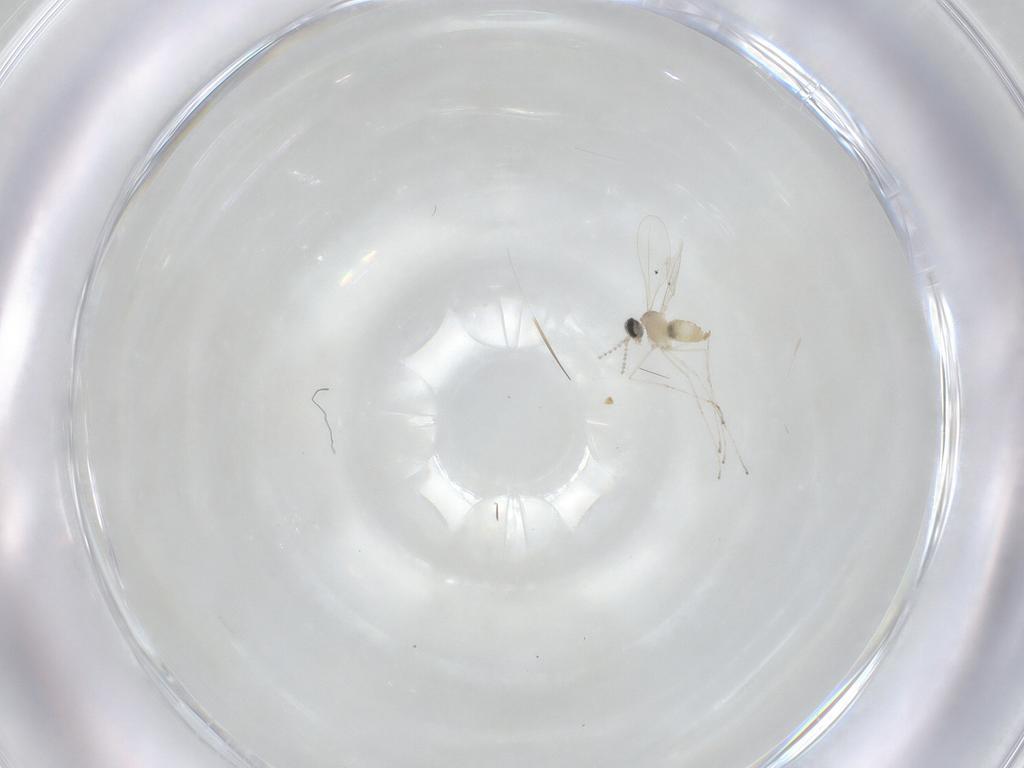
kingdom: Animalia
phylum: Arthropoda
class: Insecta
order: Diptera
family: Cecidomyiidae
